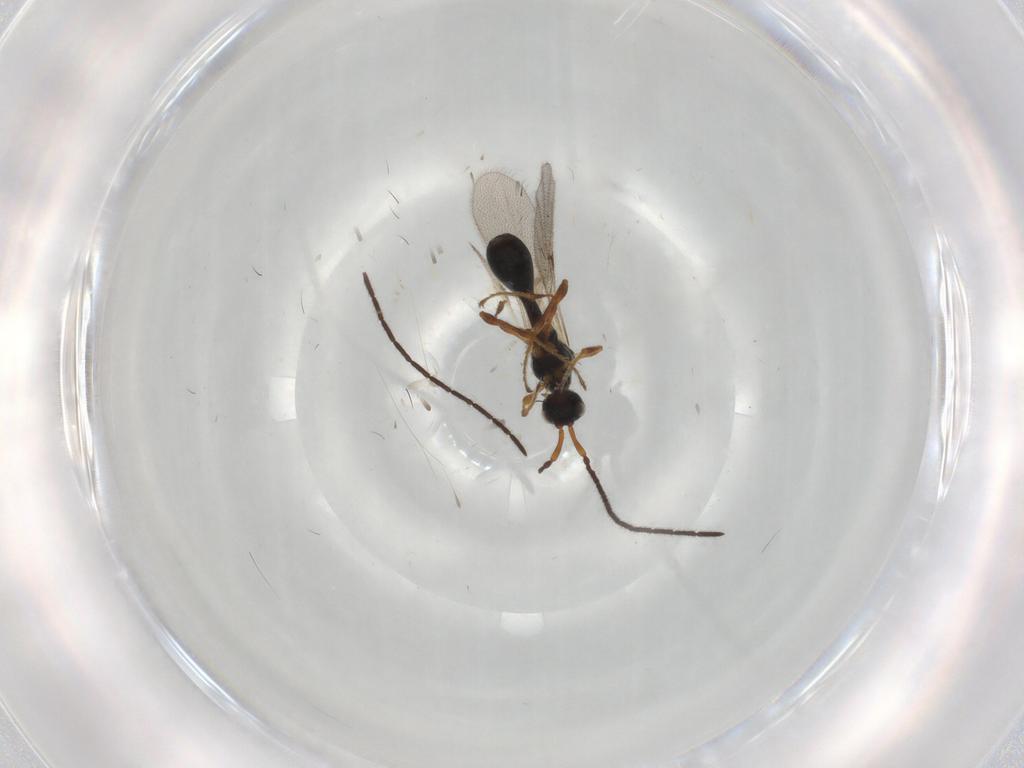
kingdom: Animalia
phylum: Arthropoda
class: Insecta
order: Hymenoptera
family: Diapriidae
